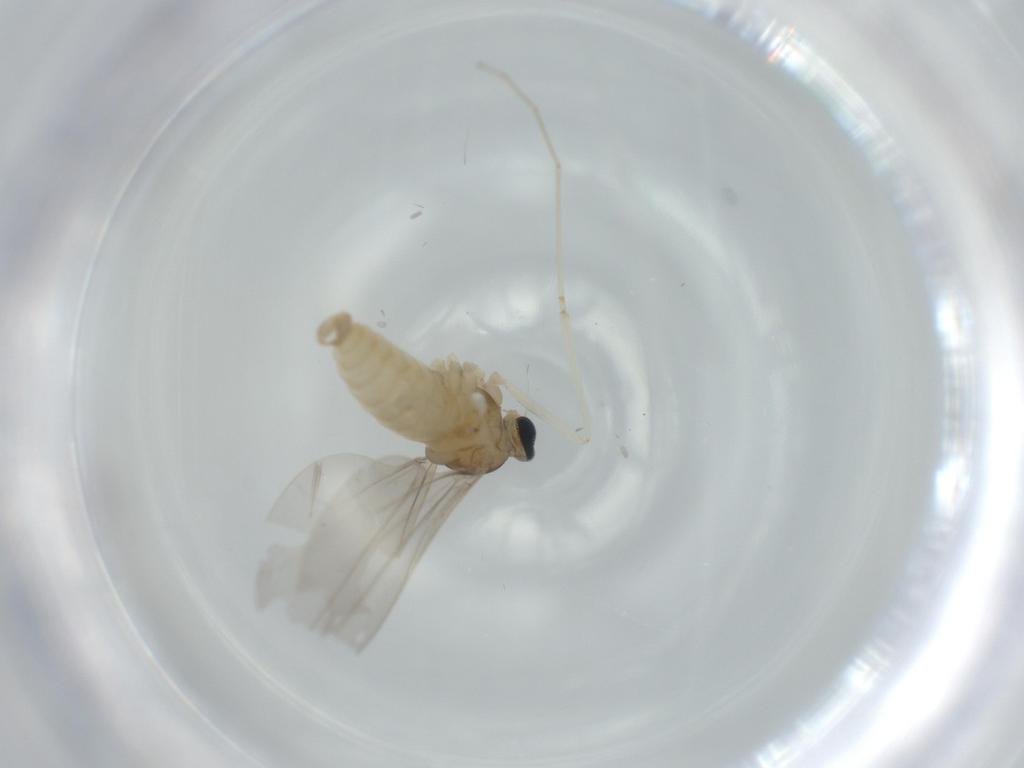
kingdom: Animalia
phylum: Arthropoda
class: Insecta
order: Diptera
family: Cecidomyiidae
